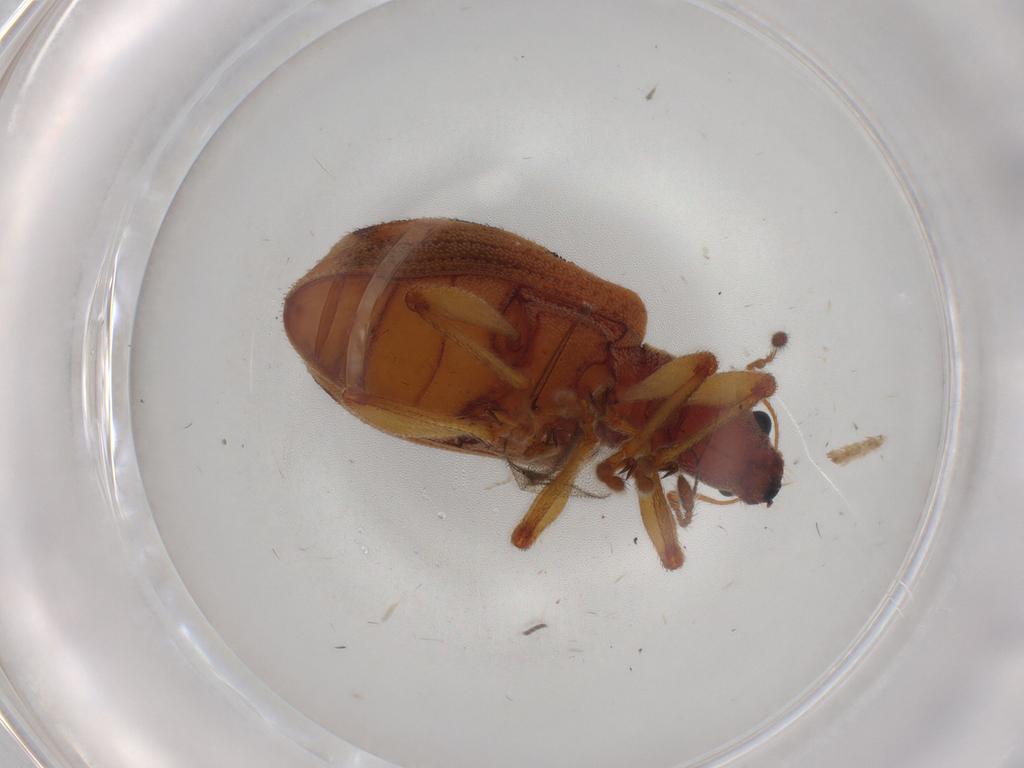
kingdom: Animalia
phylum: Arthropoda
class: Insecta
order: Coleoptera
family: Curculionidae
